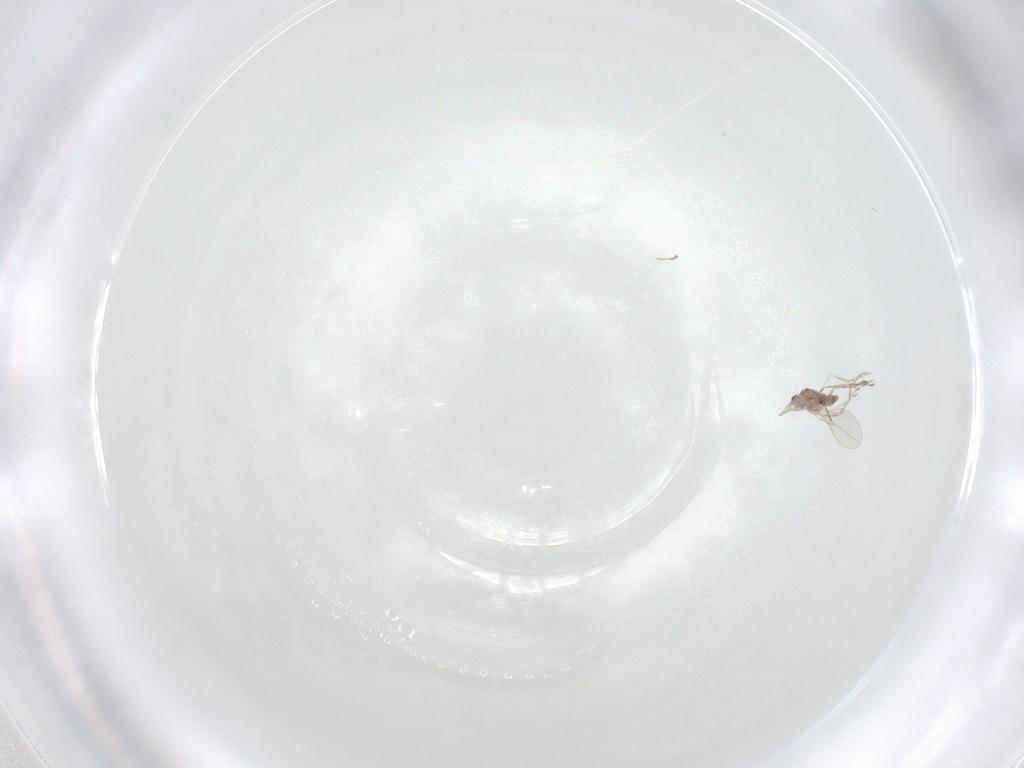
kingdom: Animalia
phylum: Arthropoda
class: Insecta
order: Diptera
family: Cecidomyiidae
